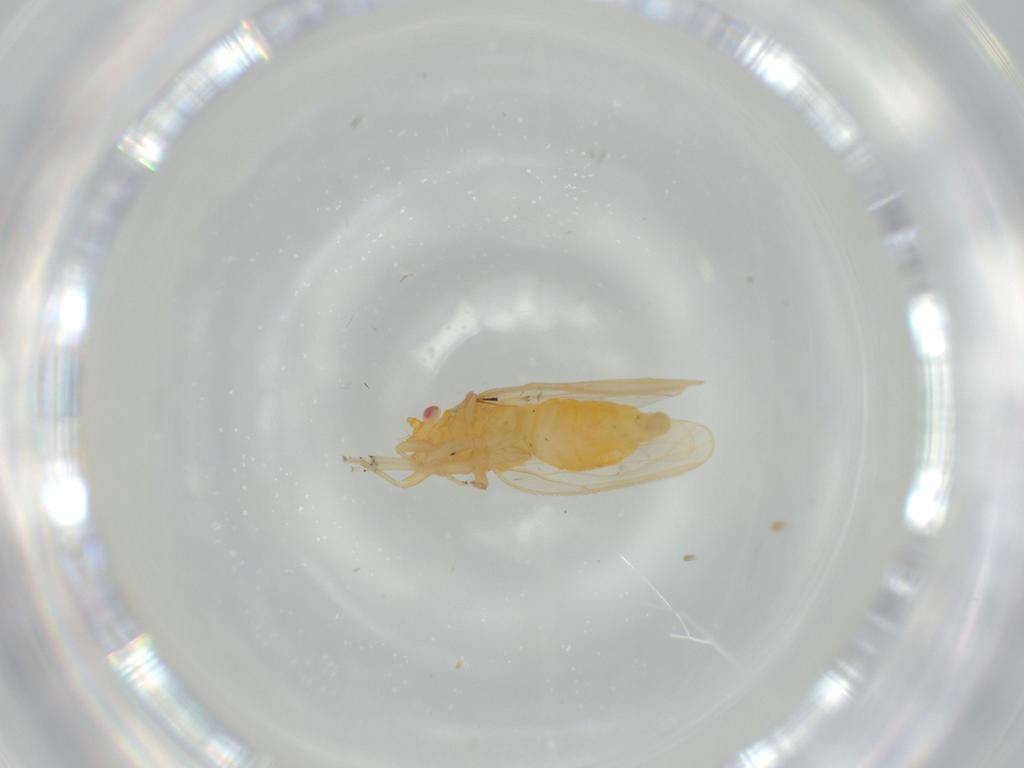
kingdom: Animalia
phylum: Arthropoda
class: Insecta
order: Hemiptera
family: Psyllidae
